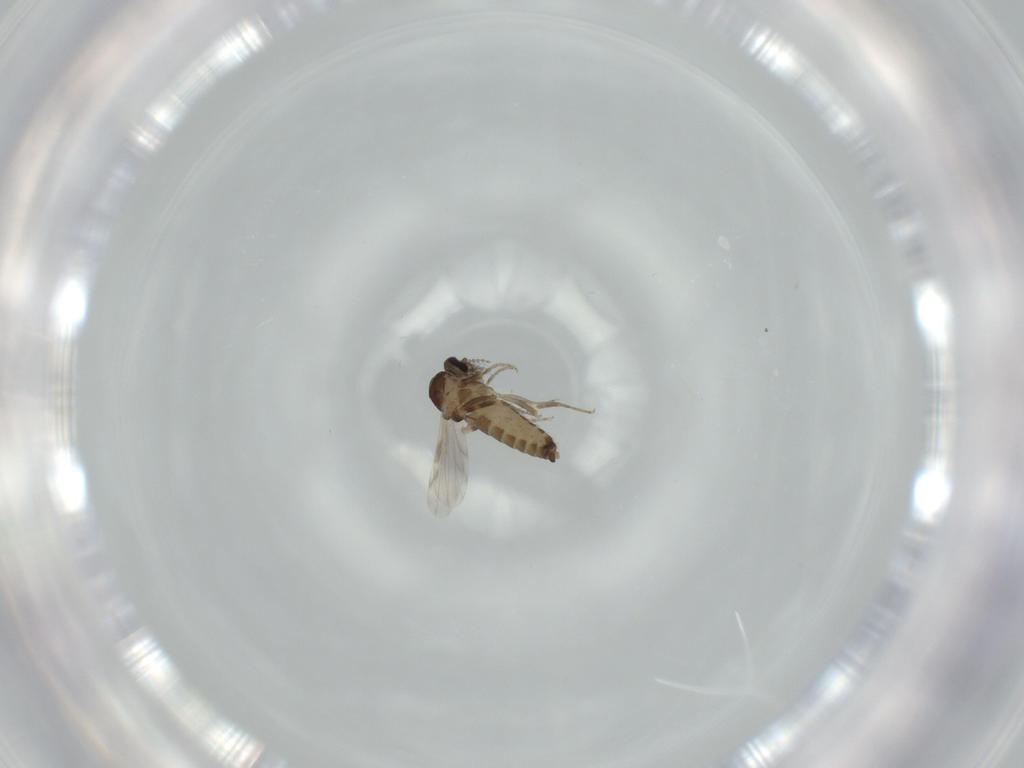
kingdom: Animalia
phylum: Arthropoda
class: Insecta
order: Diptera
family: Ceratopogonidae
